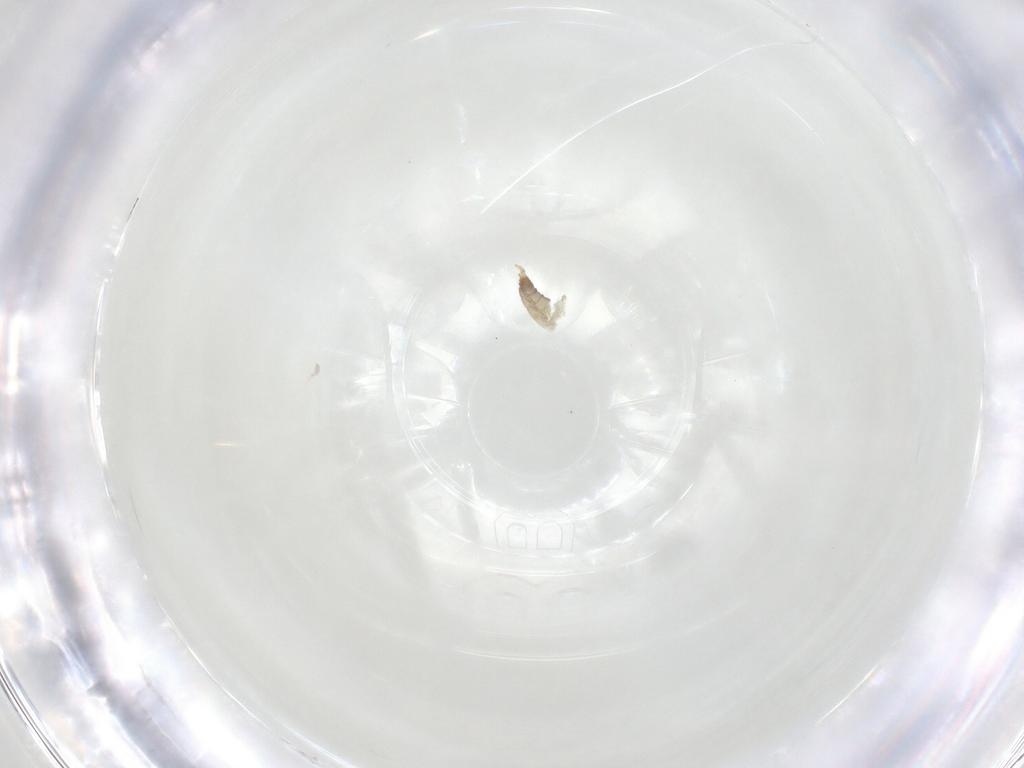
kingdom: Animalia
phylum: Arthropoda
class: Insecta
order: Diptera
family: Cecidomyiidae
